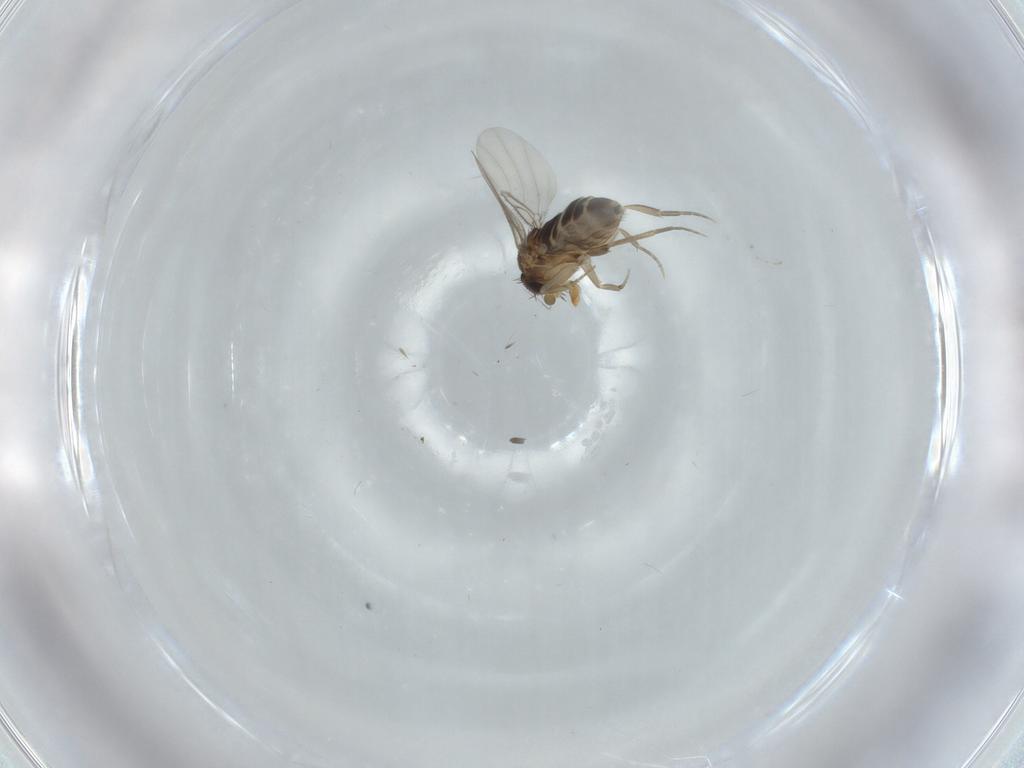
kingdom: Animalia
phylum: Arthropoda
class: Insecta
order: Diptera
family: Phoridae
